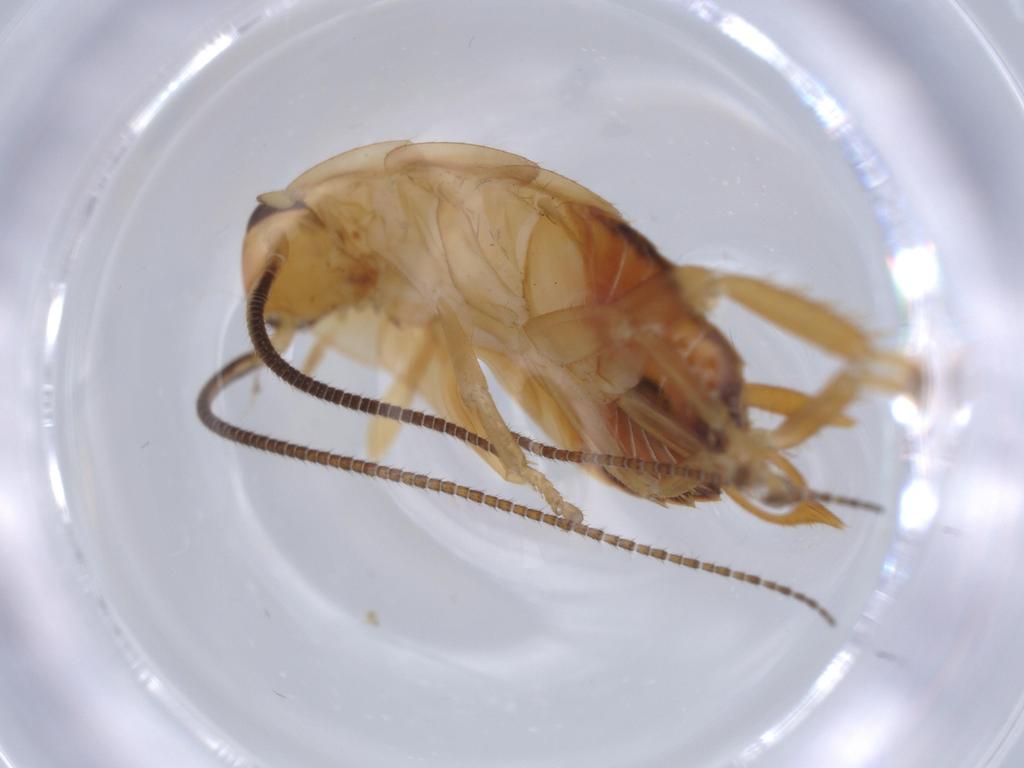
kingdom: Animalia
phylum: Arthropoda
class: Insecta
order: Blattodea
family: Ectobiidae
